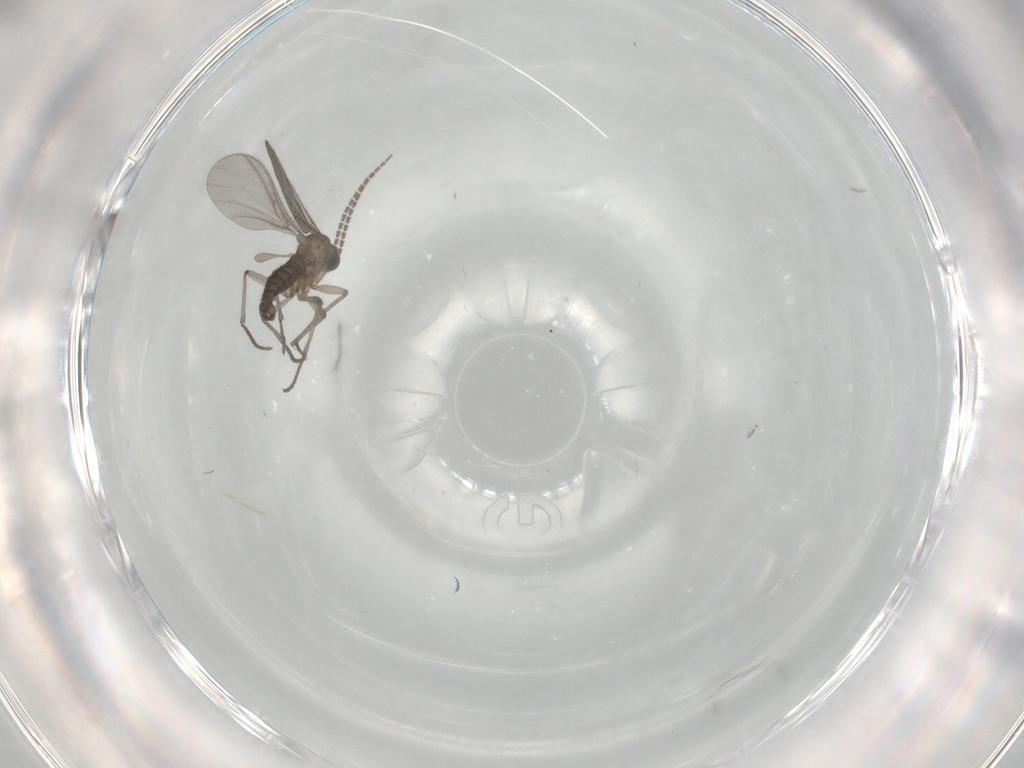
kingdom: Animalia
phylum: Arthropoda
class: Insecta
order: Diptera
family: Sciaridae
